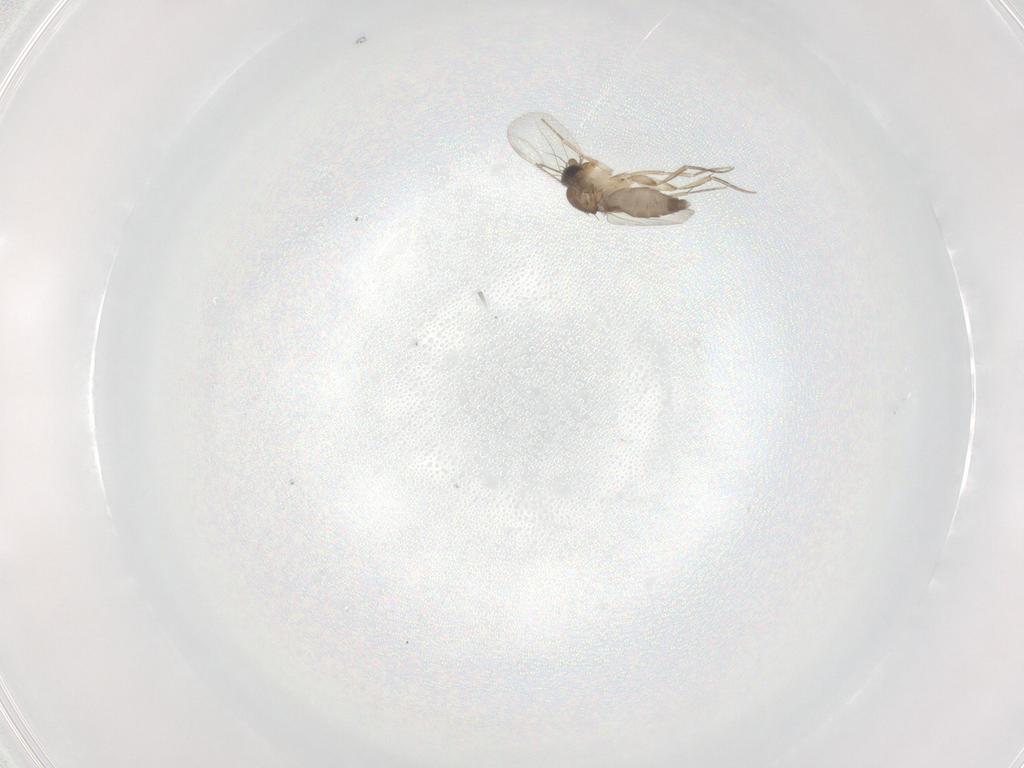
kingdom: Animalia
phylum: Arthropoda
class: Insecta
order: Diptera
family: Phoridae
